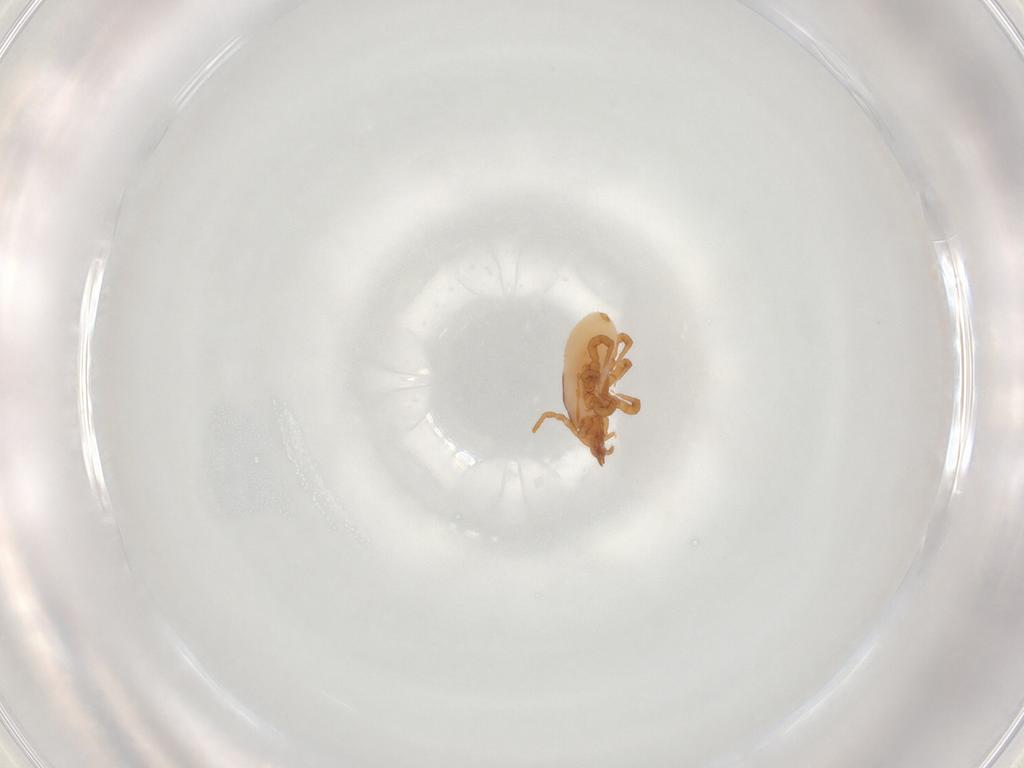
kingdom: Animalia
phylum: Arthropoda
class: Arachnida
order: Mesostigmata
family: Parasitidae
